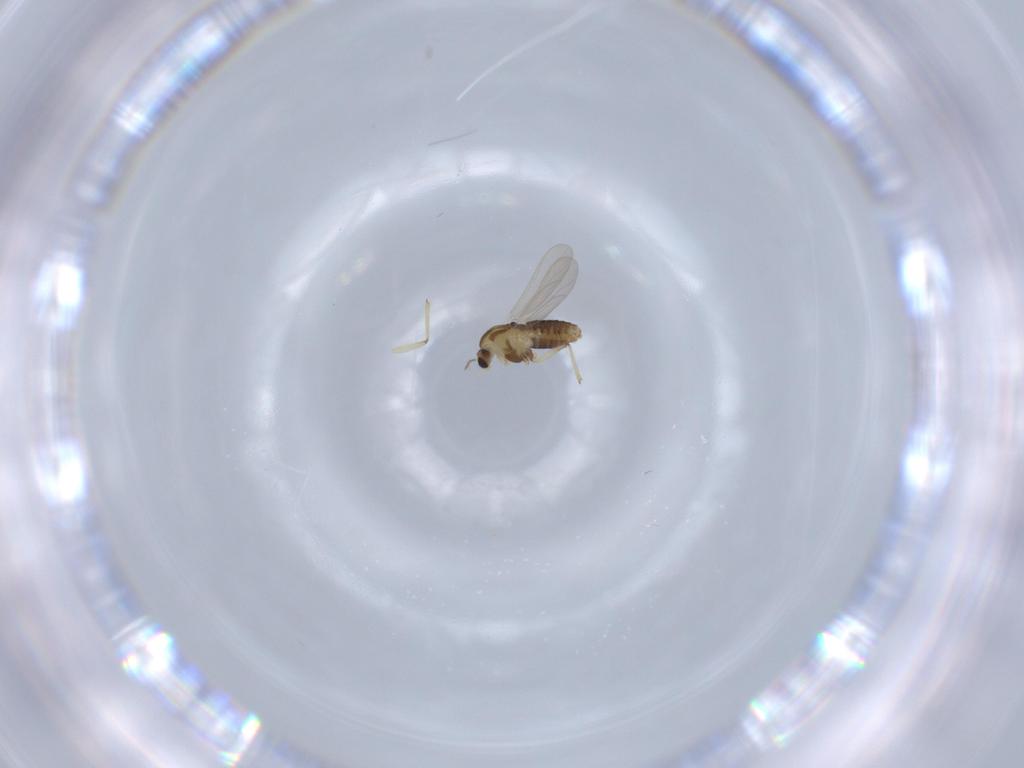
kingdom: Animalia
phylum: Arthropoda
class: Insecta
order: Diptera
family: Chironomidae
